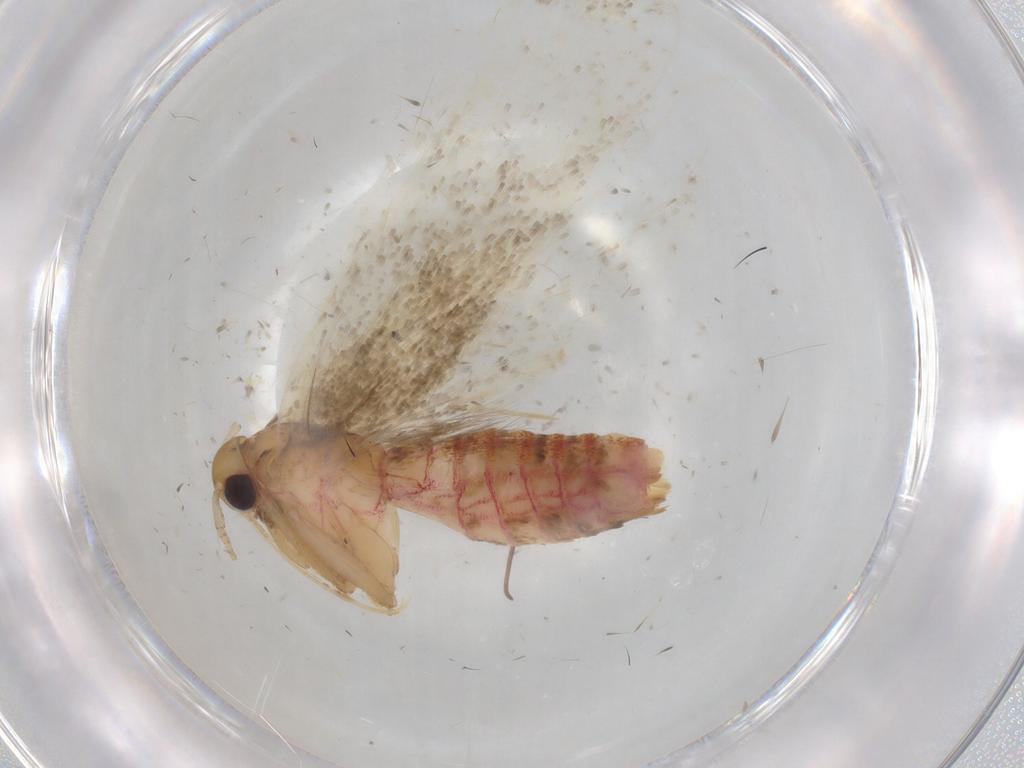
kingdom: Animalia
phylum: Arthropoda
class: Insecta
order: Lepidoptera
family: Lecithoceridae
